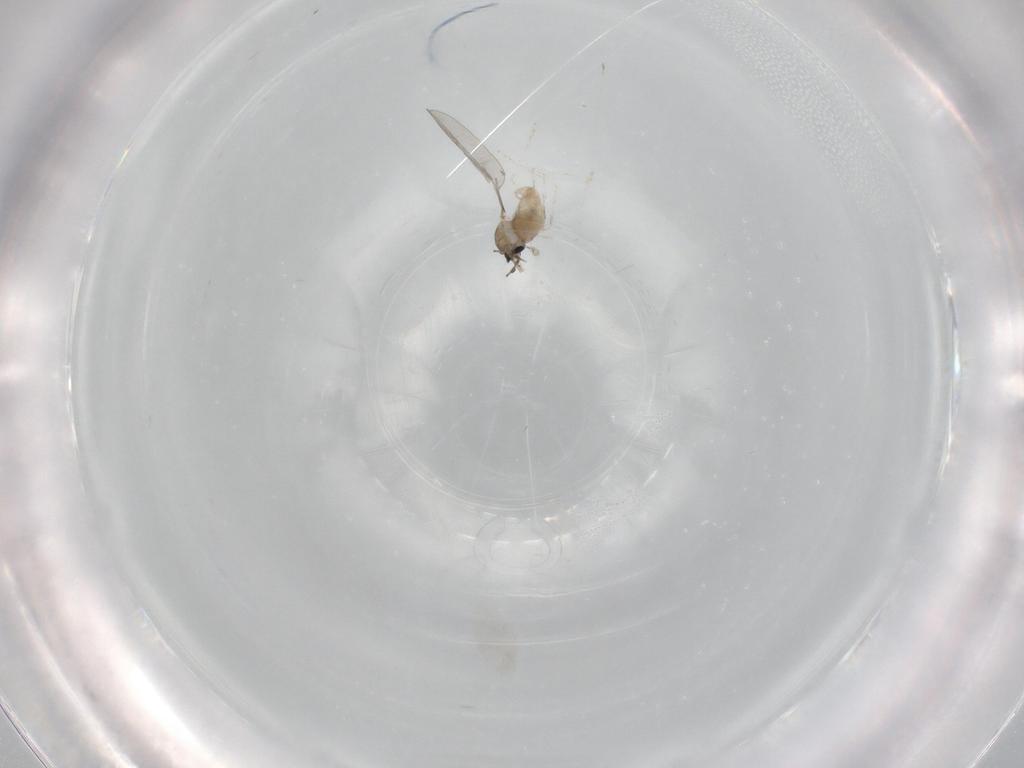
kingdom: Animalia
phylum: Arthropoda
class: Insecta
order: Diptera
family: Cecidomyiidae
